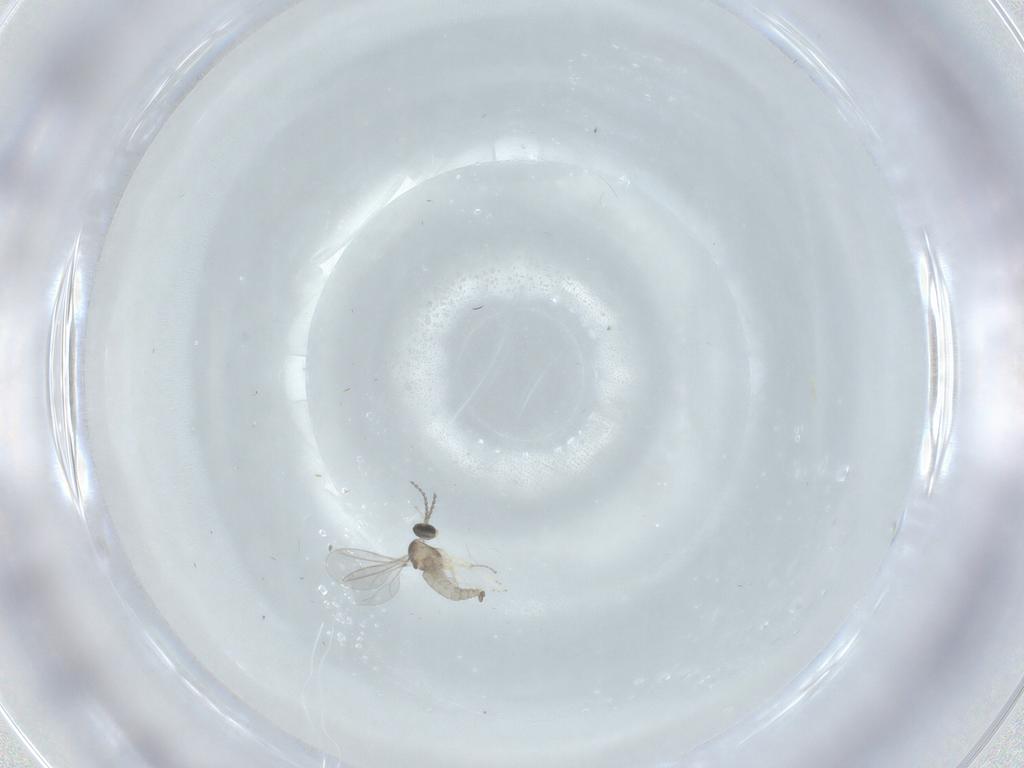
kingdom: Animalia
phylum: Arthropoda
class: Insecta
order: Diptera
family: Cecidomyiidae
